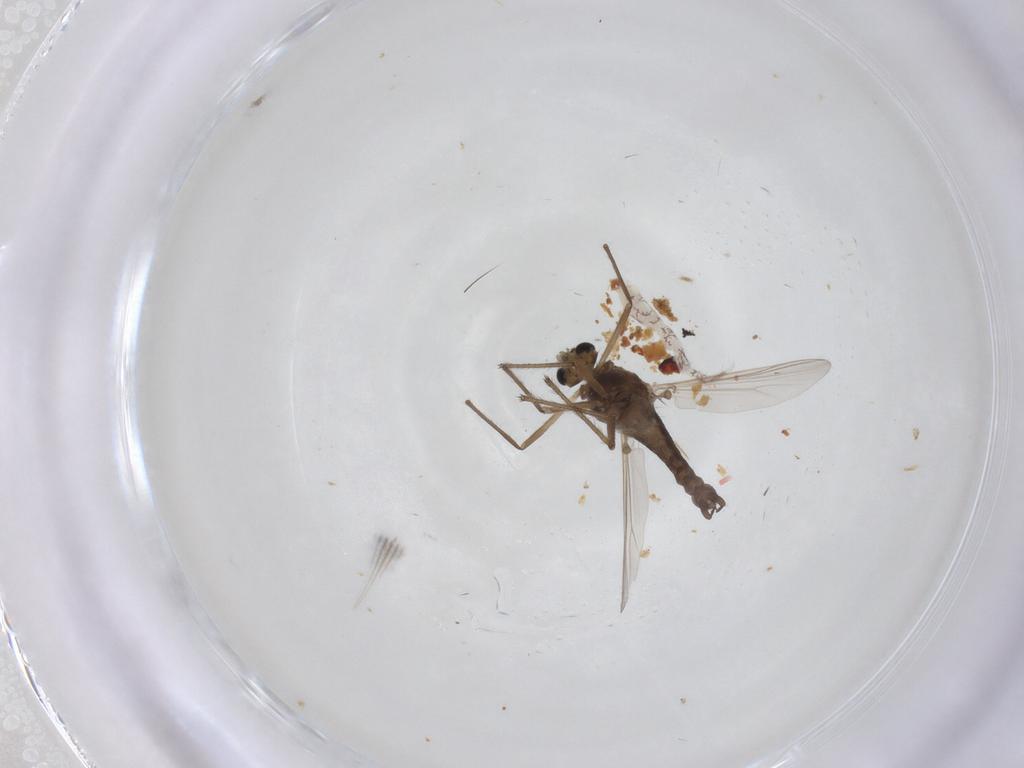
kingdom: Animalia
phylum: Arthropoda
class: Insecta
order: Diptera
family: Chironomidae
